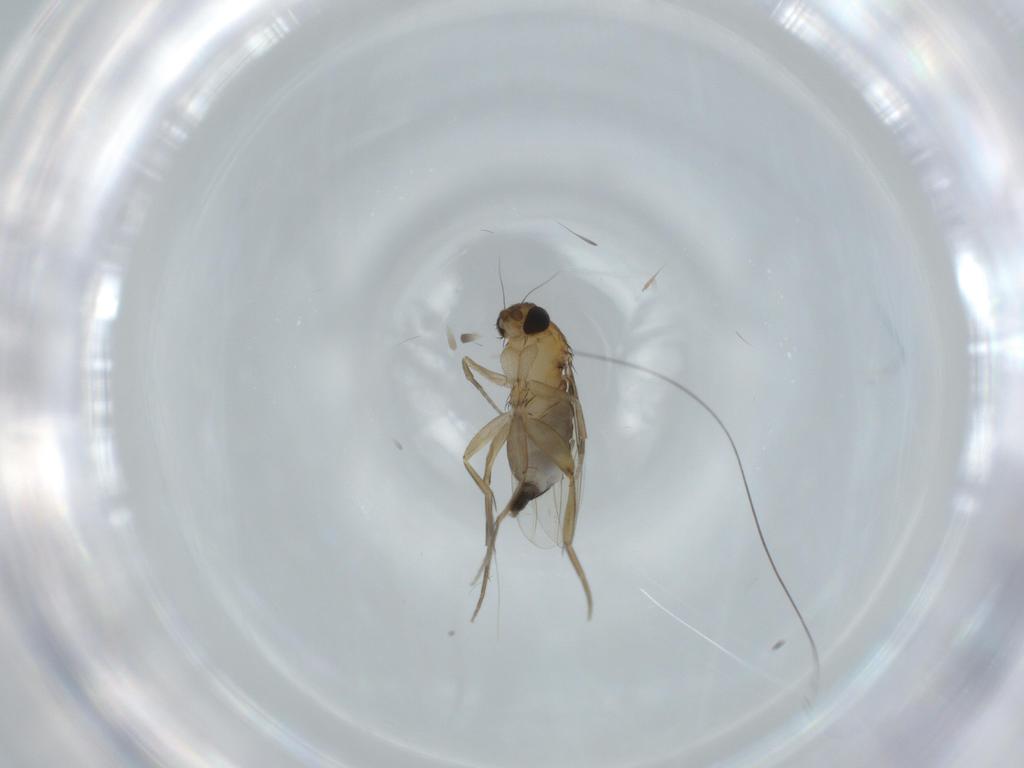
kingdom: Animalia
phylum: Arthropoda
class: Insecta
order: Diptera
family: Phoridae
